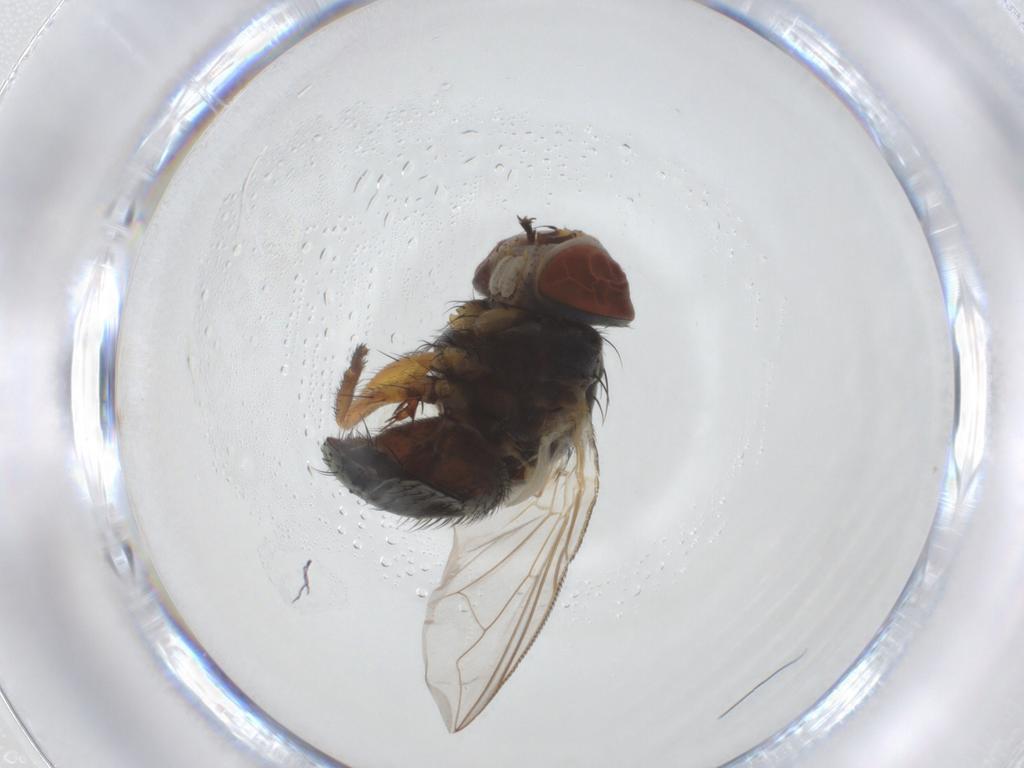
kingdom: Animalia
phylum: Arthropoda
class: Insecta
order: Diptera
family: Tachinidae
